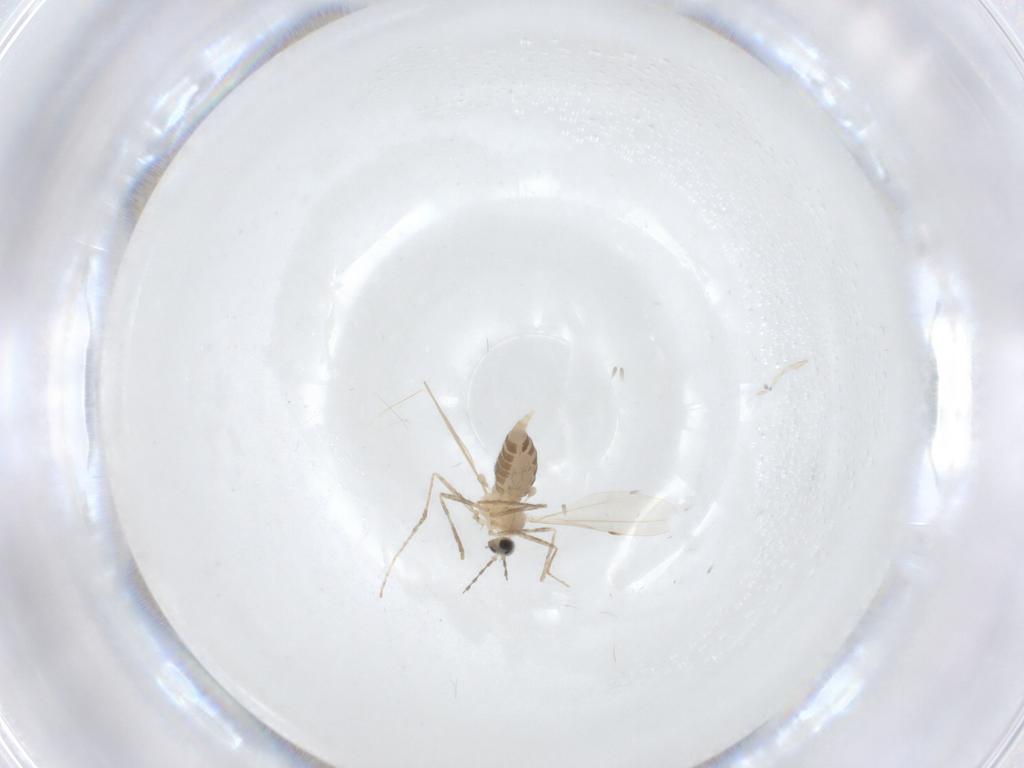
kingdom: Animalia
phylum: Arthropoda
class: Insecta
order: Diptera
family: Cecidomyiidae
